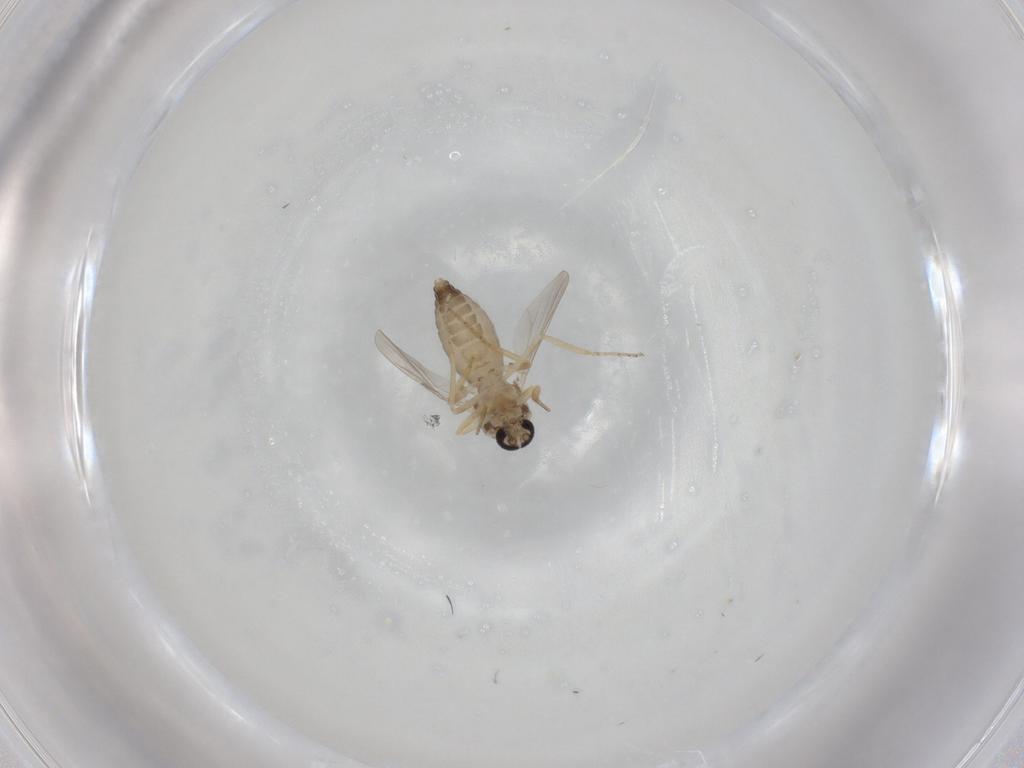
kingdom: Animalia
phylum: Arthropoda
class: Insecta
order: Diptera
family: Ceratopogonidae
